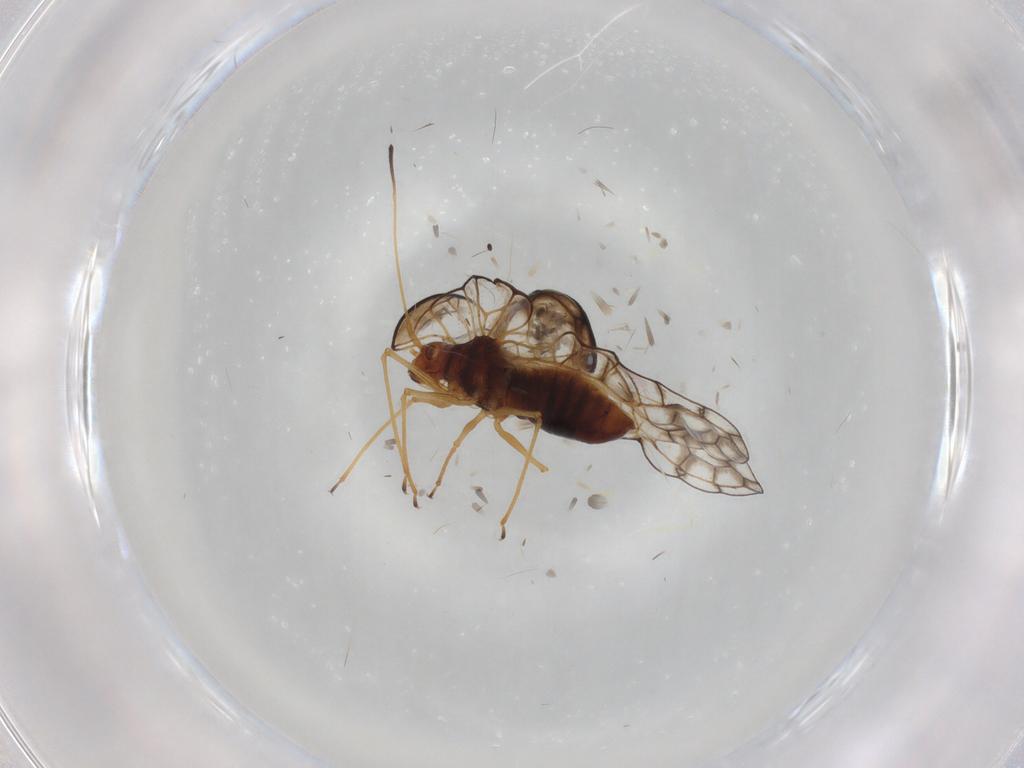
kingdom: Animalia
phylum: Arthropoda
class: Insecta
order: Hemiptera
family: Tingidae
